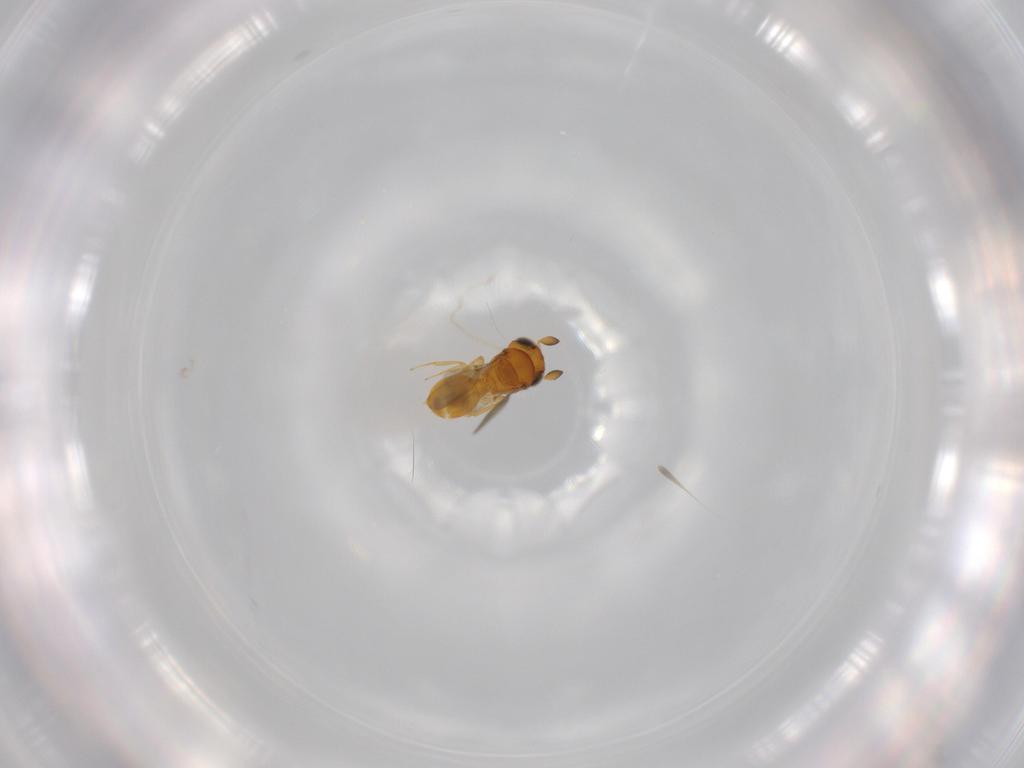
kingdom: Animalia
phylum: Arthropoda
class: Insecta
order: Hymenoptera
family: Scelionidae
